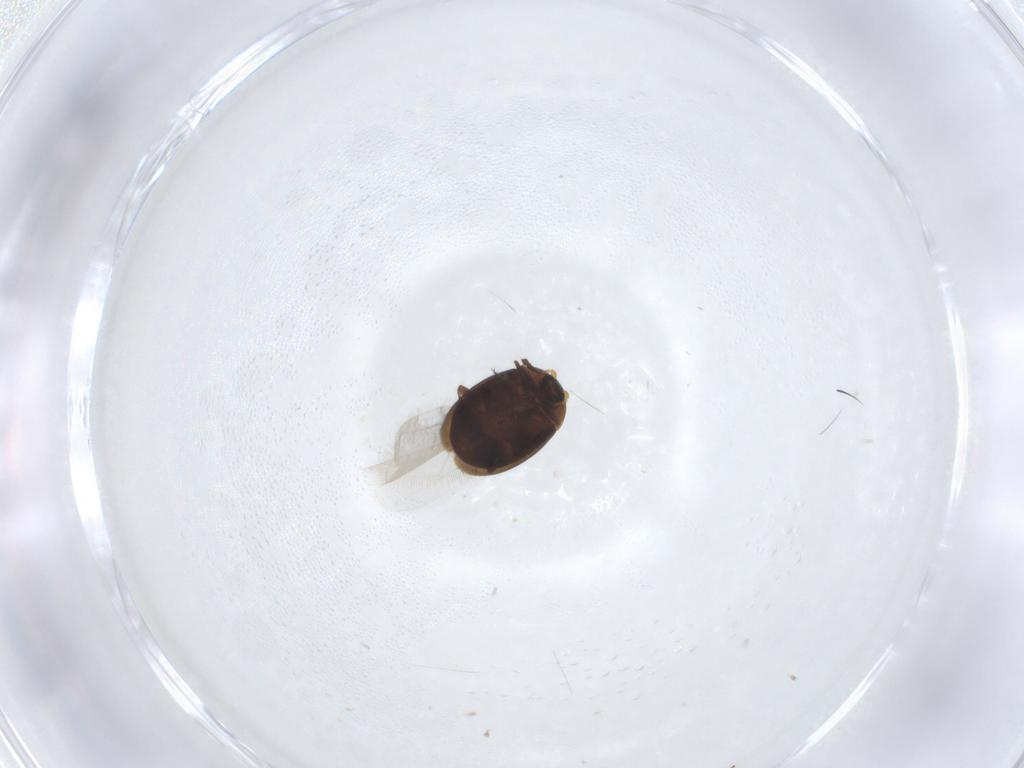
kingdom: Animalia
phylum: Arthropoda
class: Insecta
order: Coleoptera
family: Corylophidae
